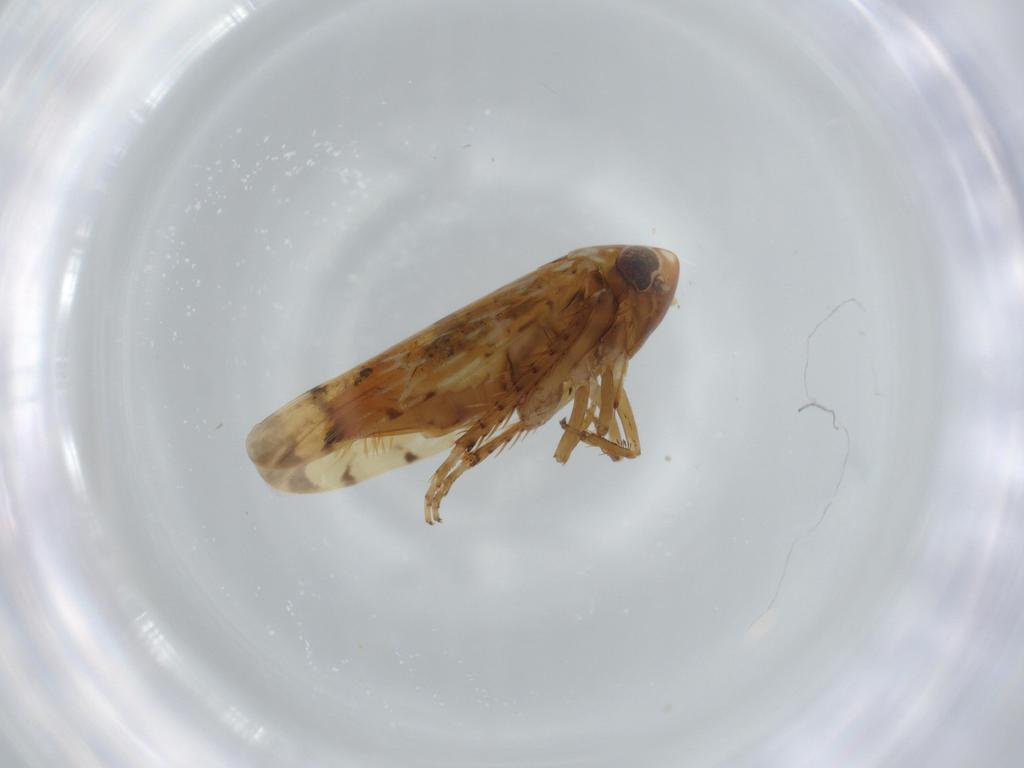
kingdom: Animalia
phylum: Arthropoda
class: Insecta
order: Hemiptera
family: Cicadellidae
